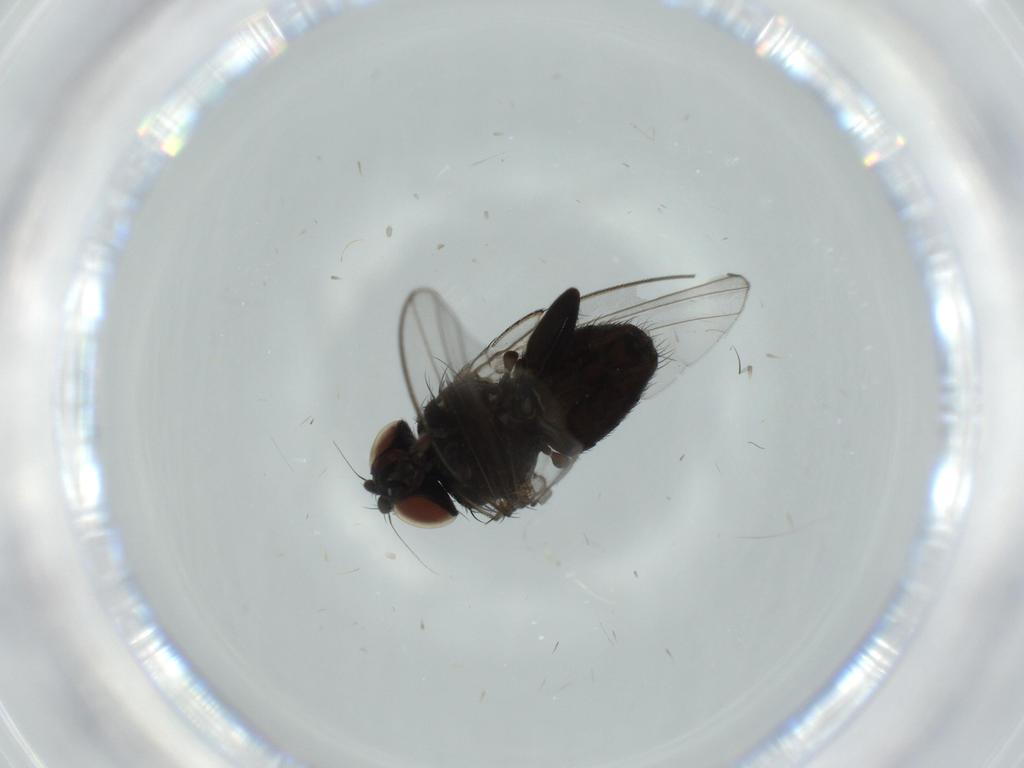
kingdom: Animalia
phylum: Arthropoda
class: Insecta
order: Diptera
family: Milichiidae
